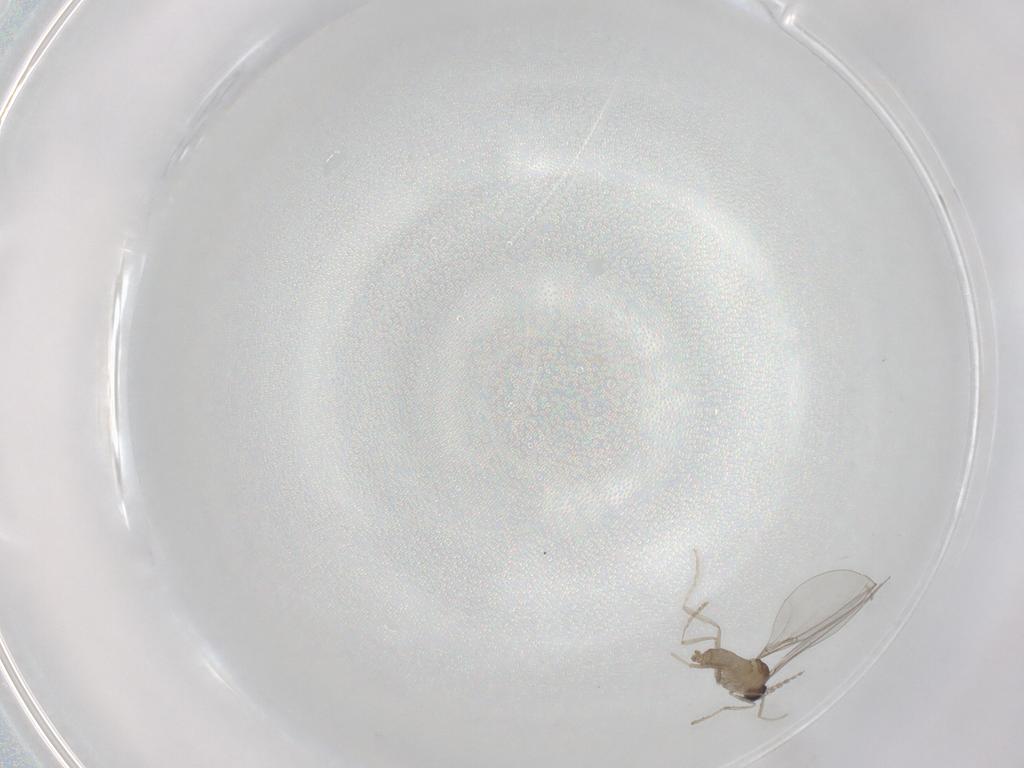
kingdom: Animalia
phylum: Arthropoda
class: Insecta
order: Diptera
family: Cecidomyiidae
